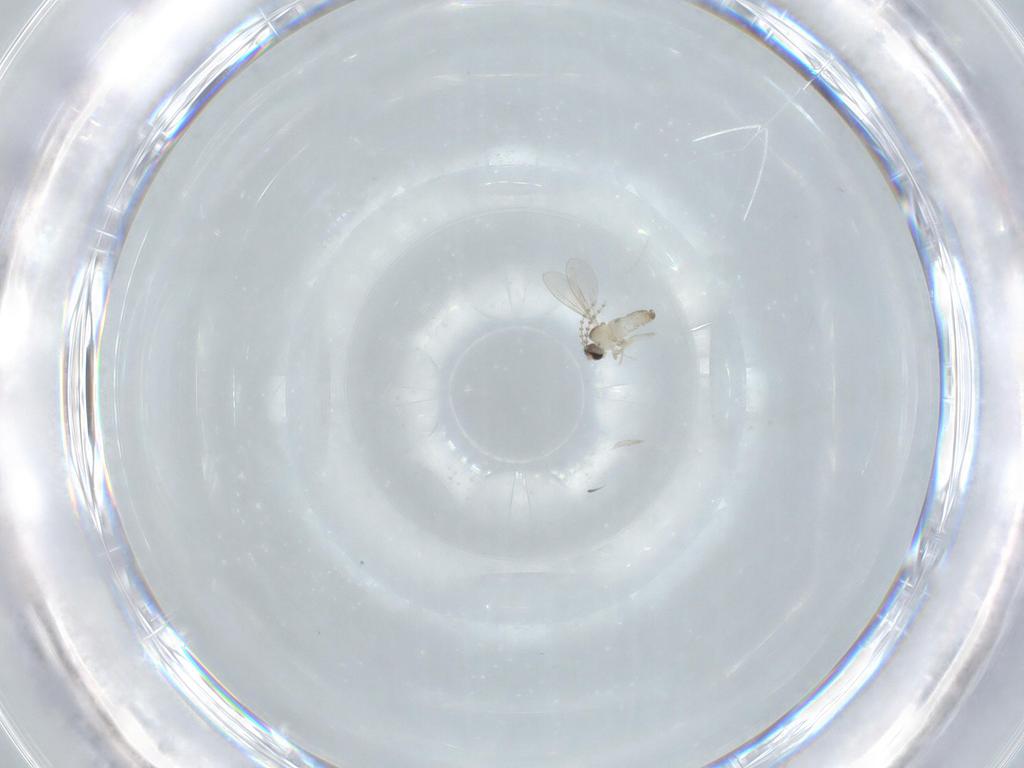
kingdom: Animalia
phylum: Arthropoda
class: Insecta
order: Diptera
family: Cecidomyiidae
